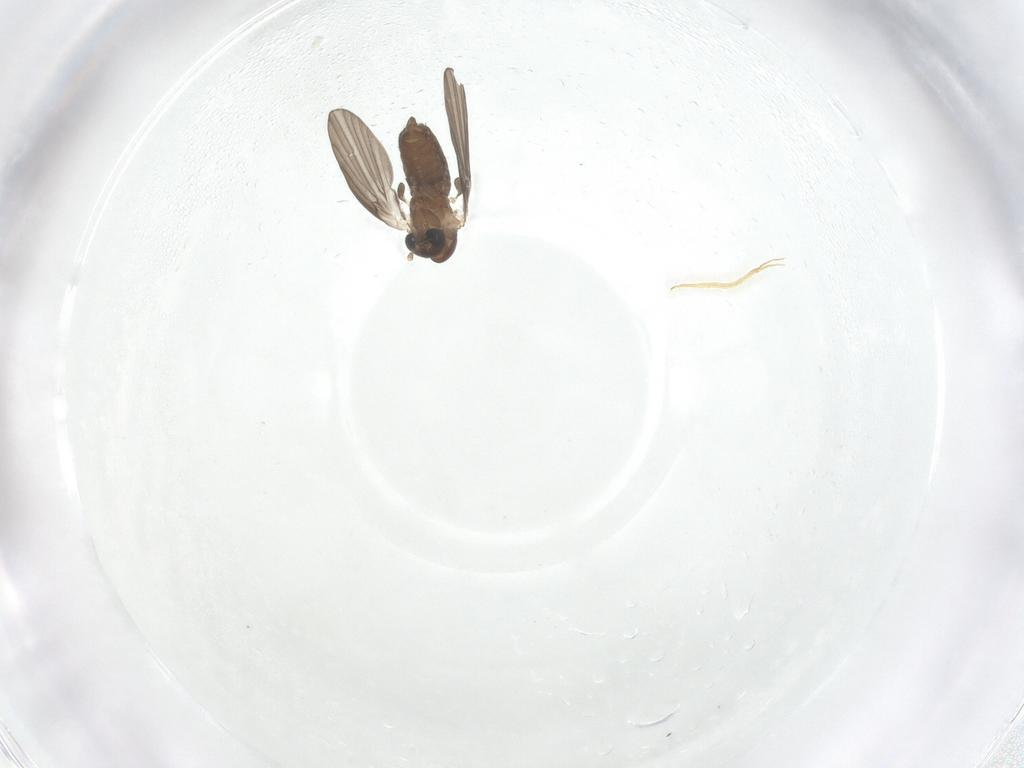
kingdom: Animalia
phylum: Arthropoda
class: Insecta
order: Diptera
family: Psychodidae
